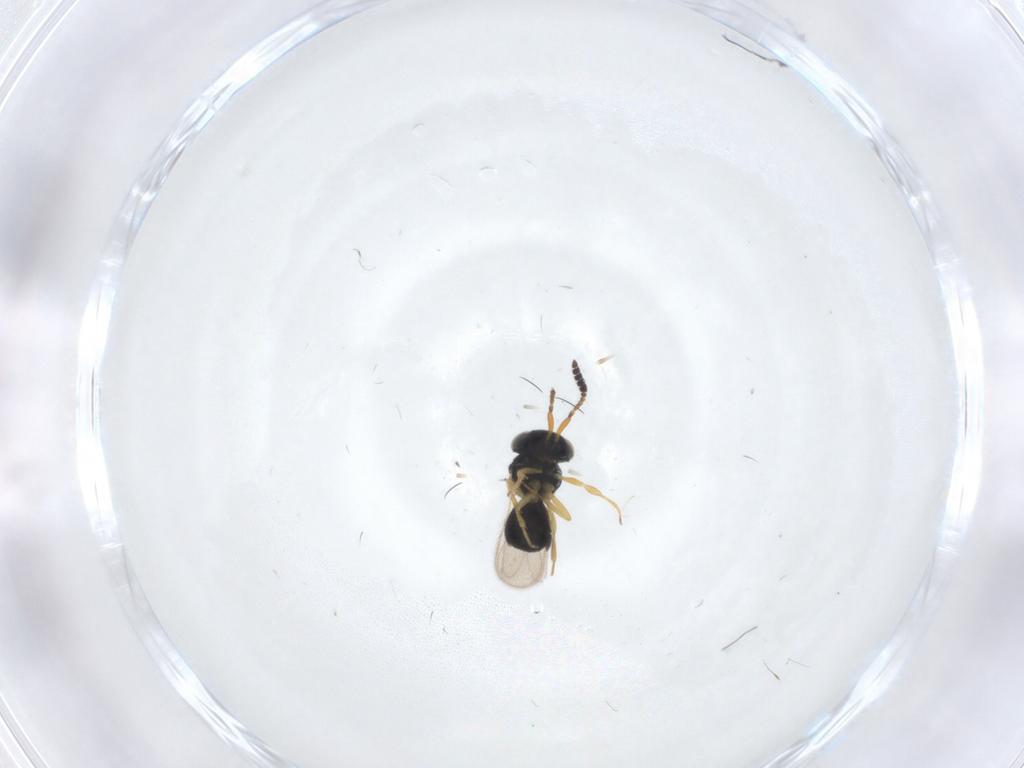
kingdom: Animalia
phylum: Arthropoda
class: Insecta
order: Hymenoptera
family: Scelionidae
